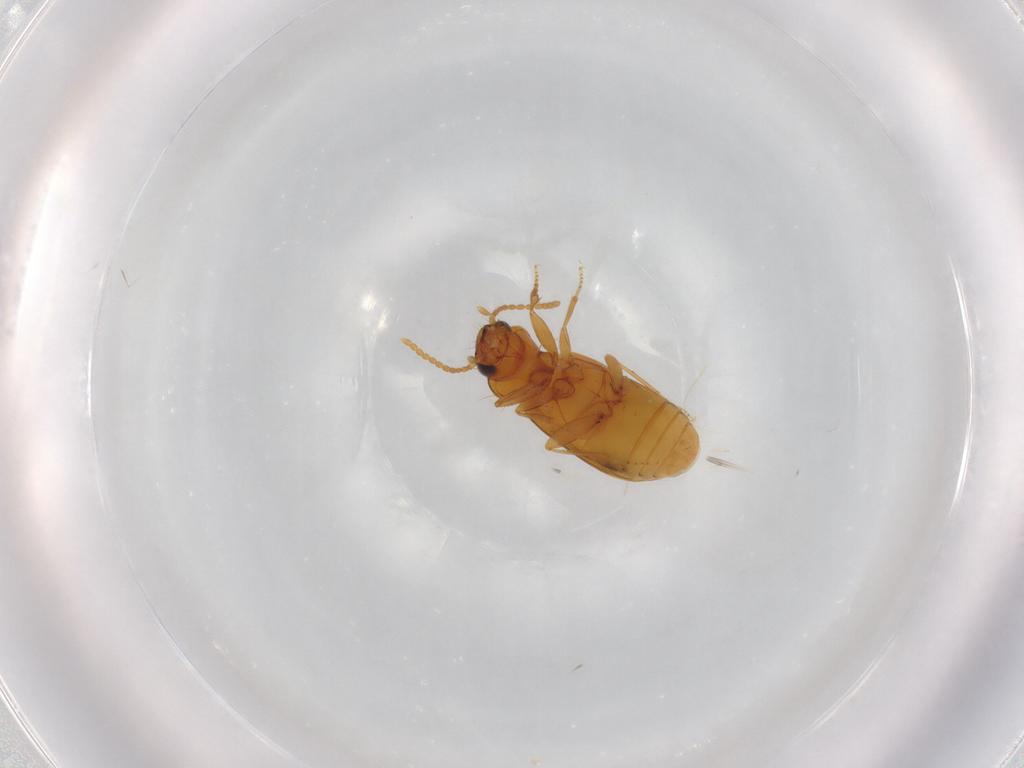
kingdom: Animalia
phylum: Arthropoda
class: Insecta
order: Coleoptera
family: Carabidae
